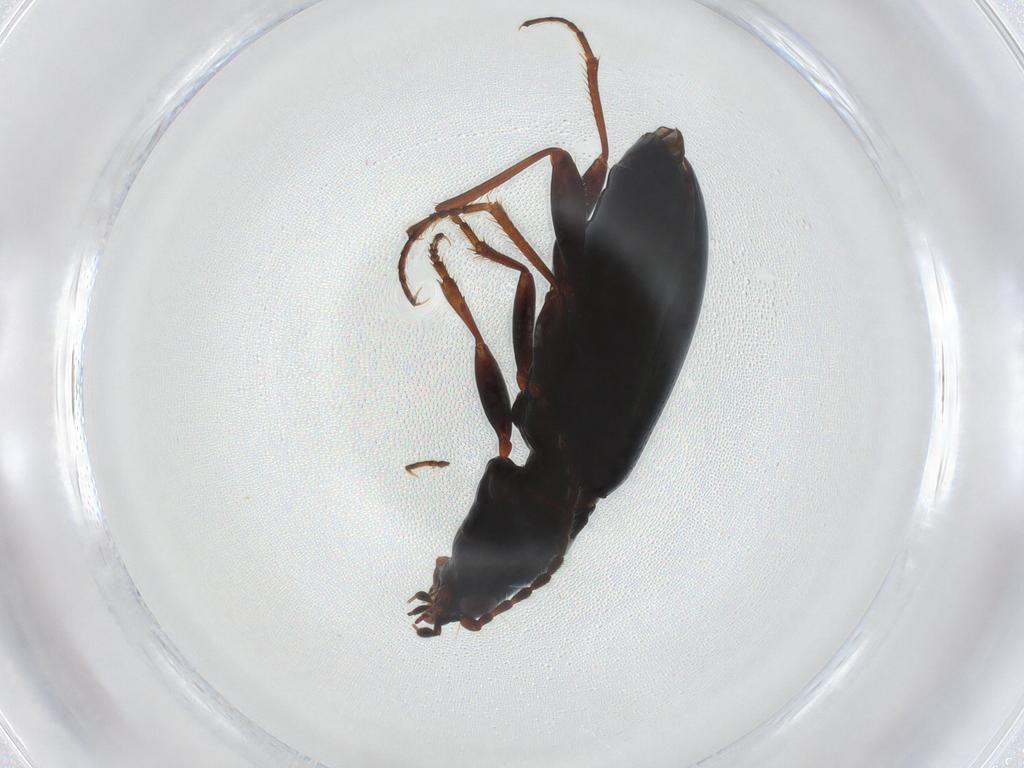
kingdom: Animalia
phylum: Arthropoda
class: Insecta
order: Coleoptera
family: Carabidae
